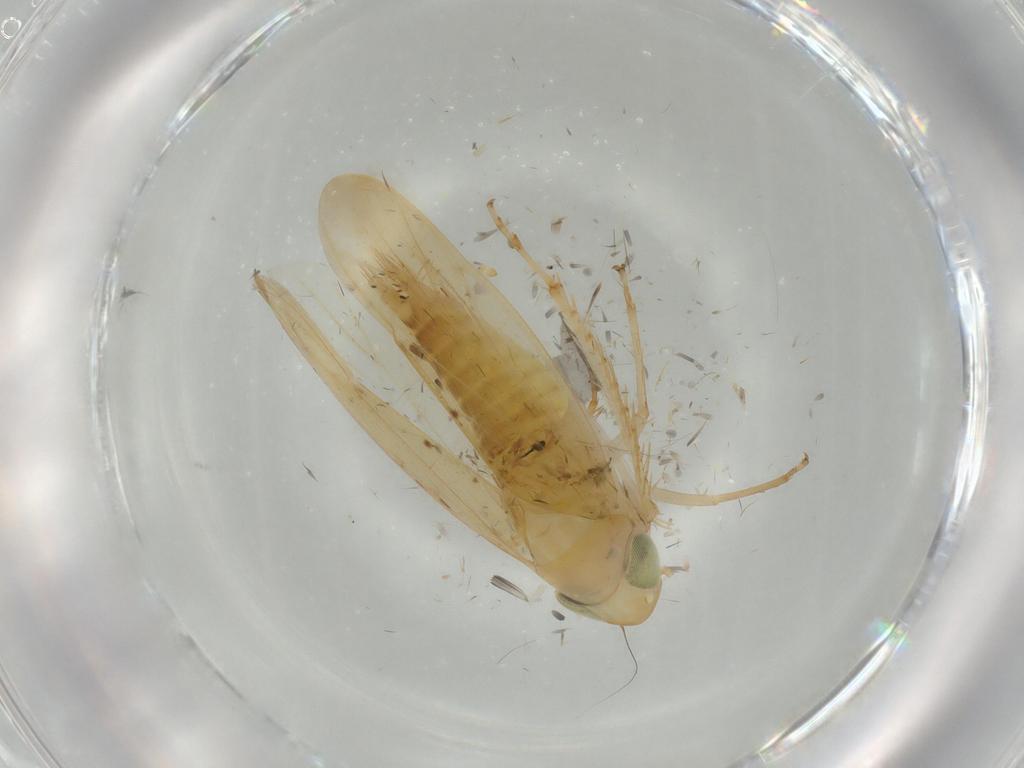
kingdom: Animalia
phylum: Arthropoda
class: Insecta
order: Hemiptera
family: Cicadellidae
